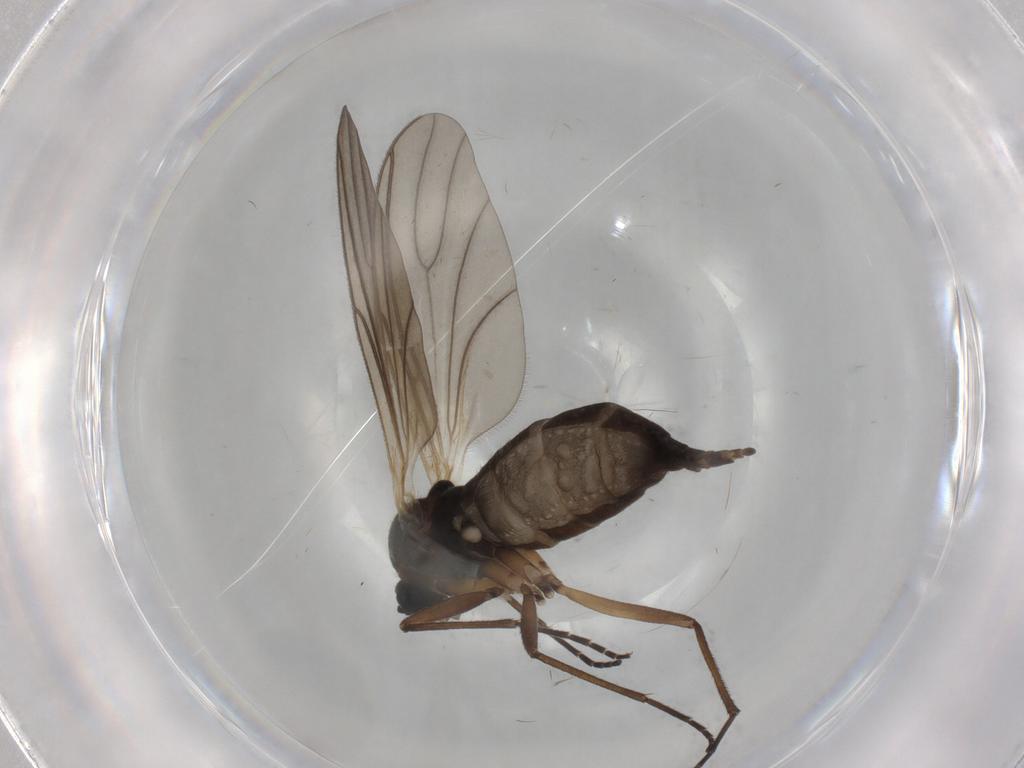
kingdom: Animalia
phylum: Arthropoda
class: Insecta
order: Diptera
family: Sciaridae
